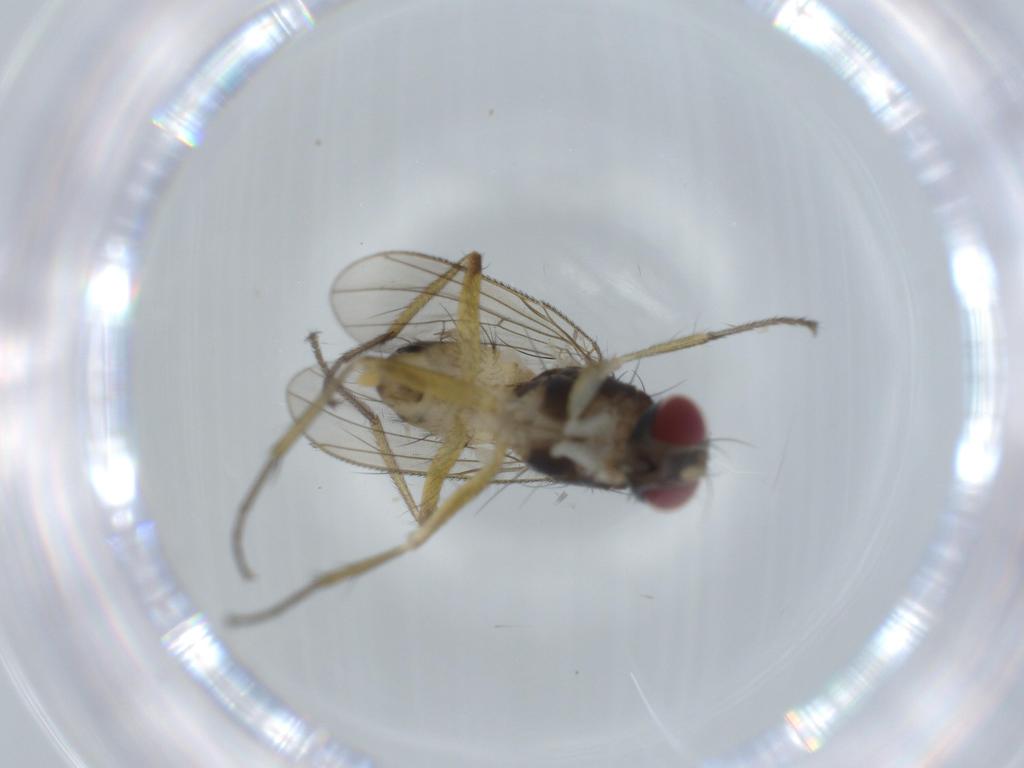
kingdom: Animalia
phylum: Arthropoda
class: Insecta
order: Diptera
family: Muscidae
